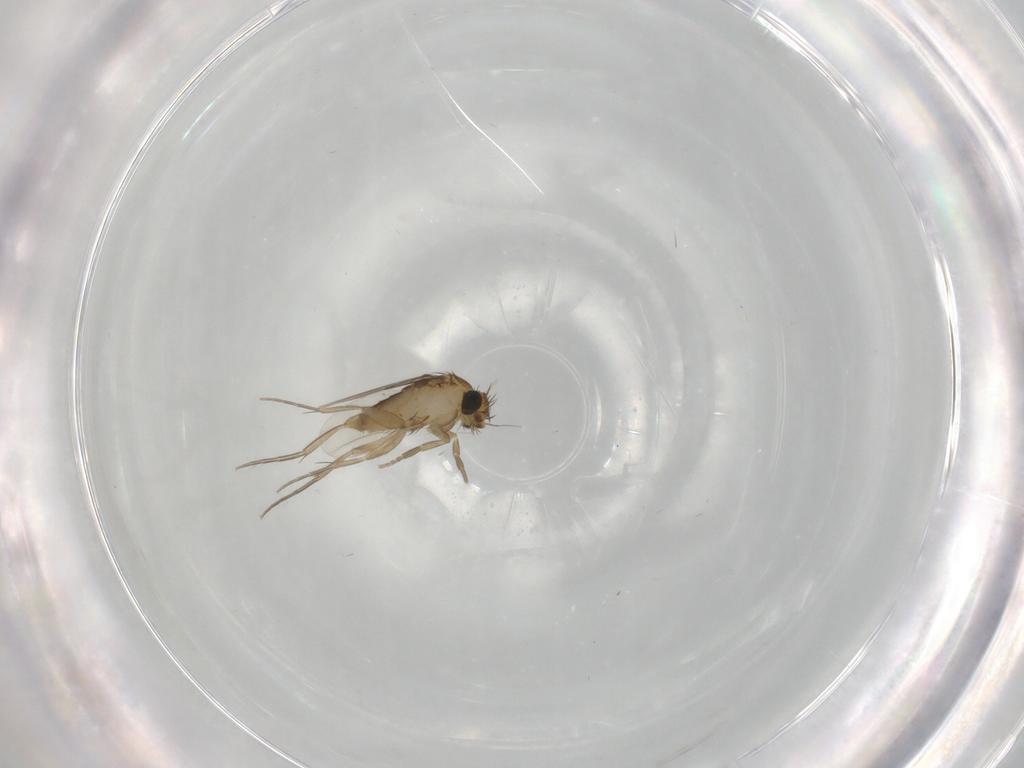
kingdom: Animalia
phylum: Arthropoda
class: Insecta
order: Diptera
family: Phoridae
